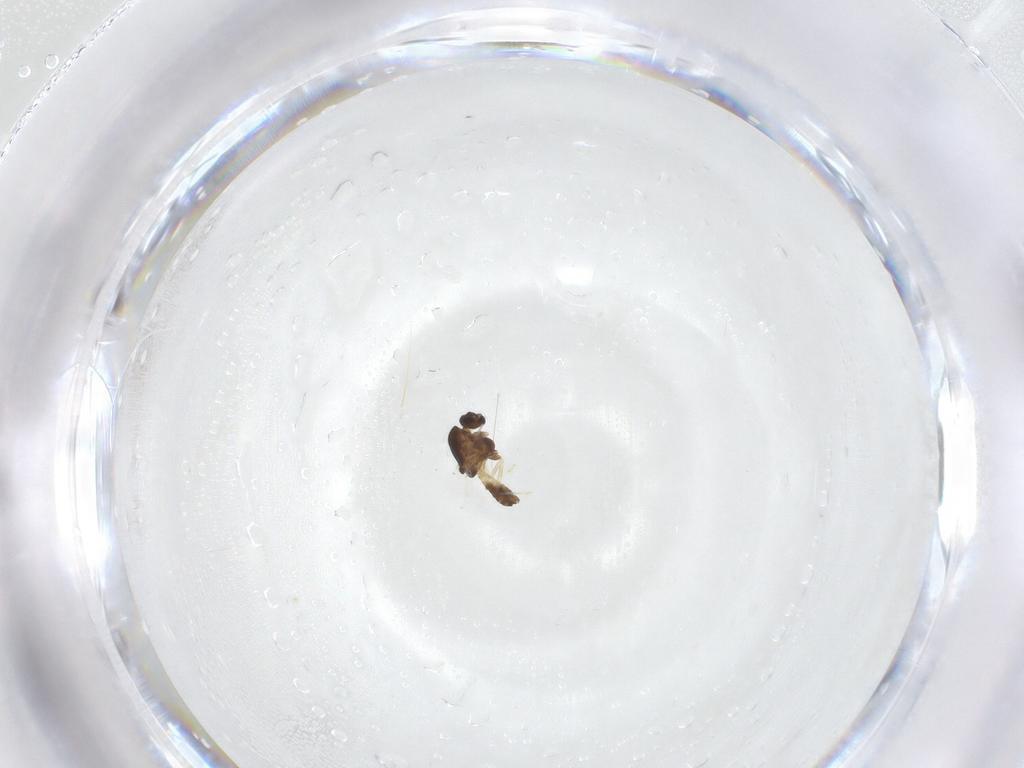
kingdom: Animalia
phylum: Arthropoda
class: Insecta
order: Diptera
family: Chironomidae
